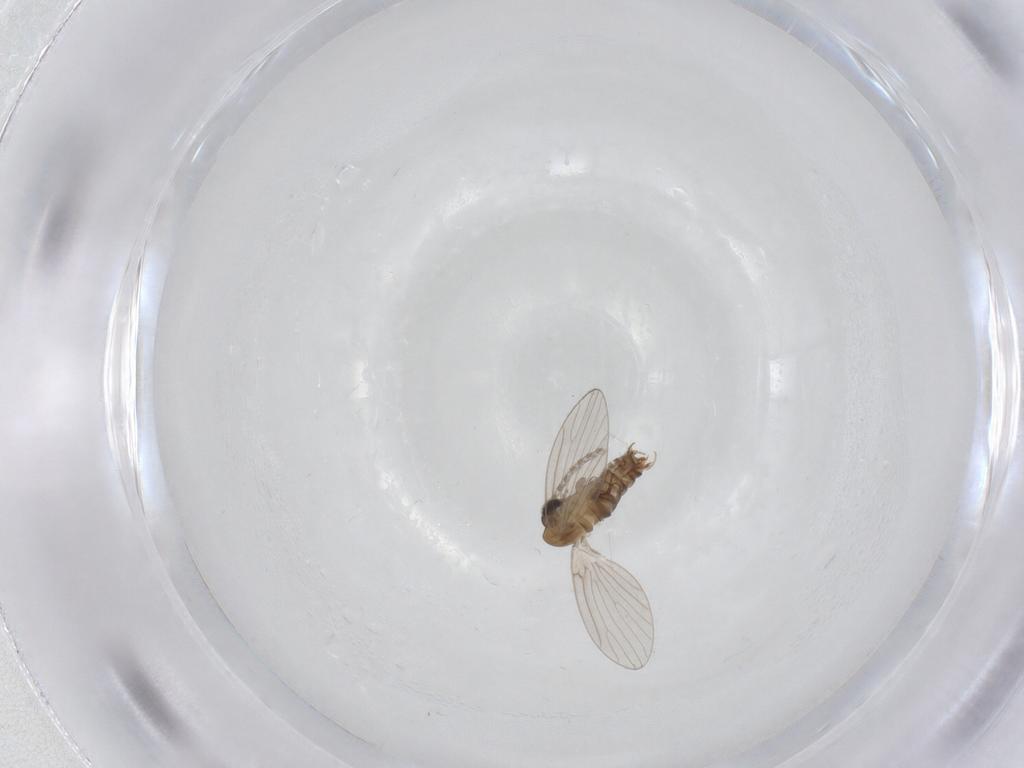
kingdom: Animalia
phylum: Arthropoda
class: Insecta
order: Diptera
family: Psychodidae
